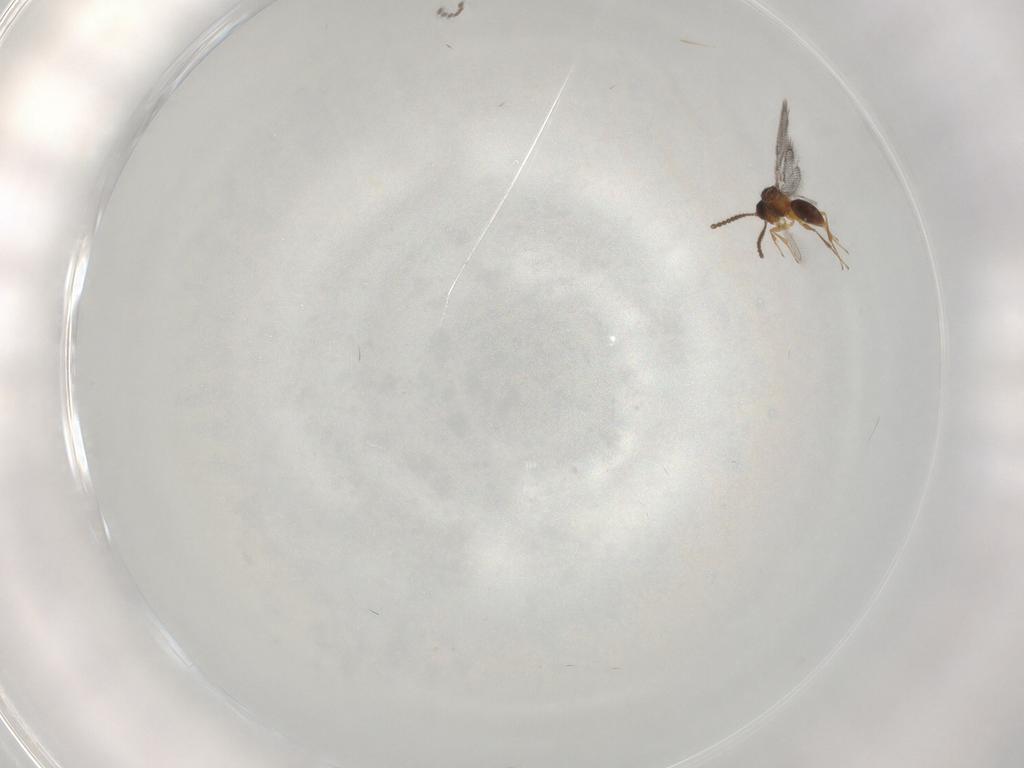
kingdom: Animalia
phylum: Arthropoda
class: Insecta
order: Hymenoptera
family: Figitidae
